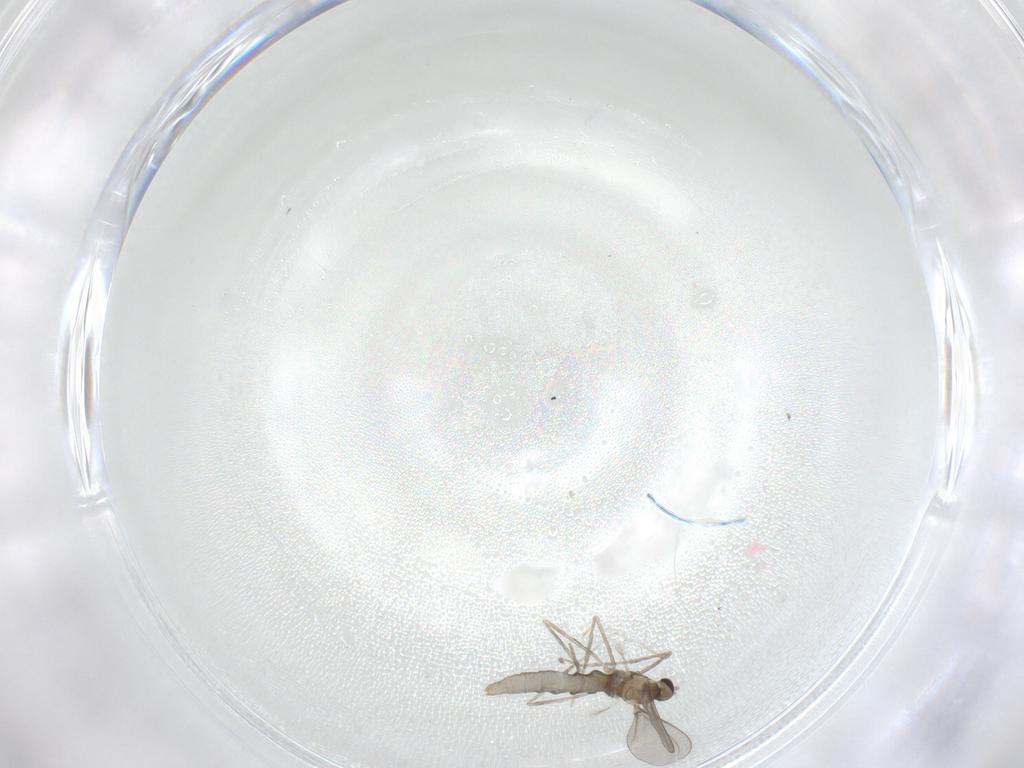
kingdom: Animalia
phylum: Arthropoda
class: Insecta
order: Diptera
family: Ceratopogonidae
